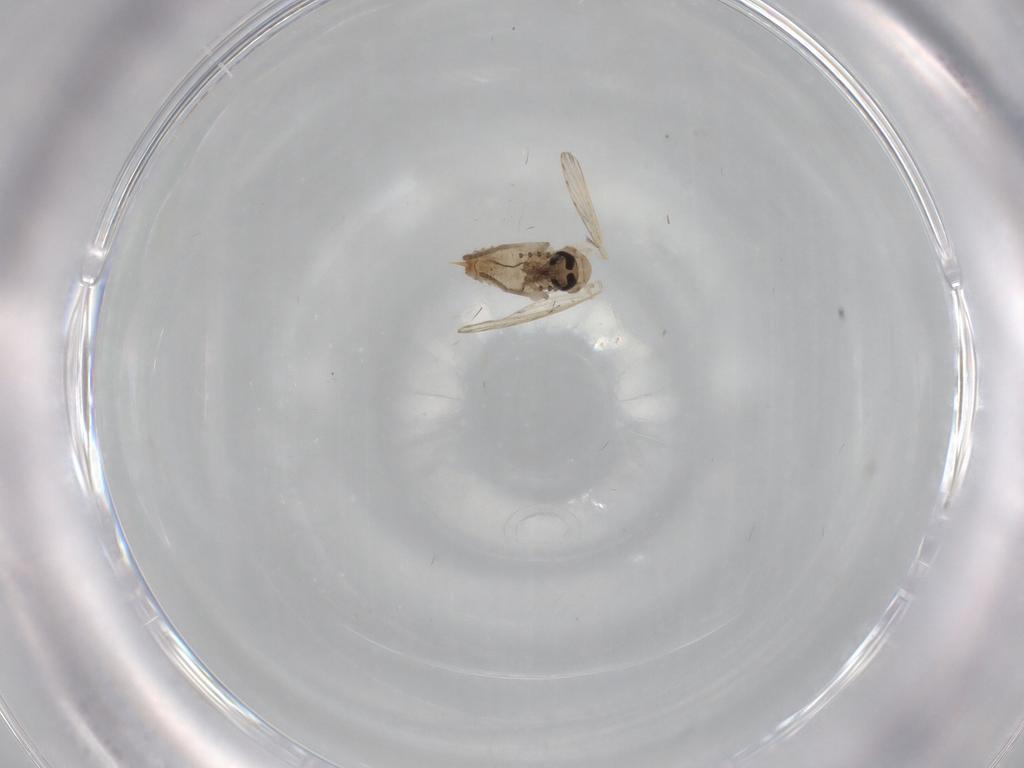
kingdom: Animalia
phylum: Arthropoda
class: Insecta
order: Diptera
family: Psychodidae
